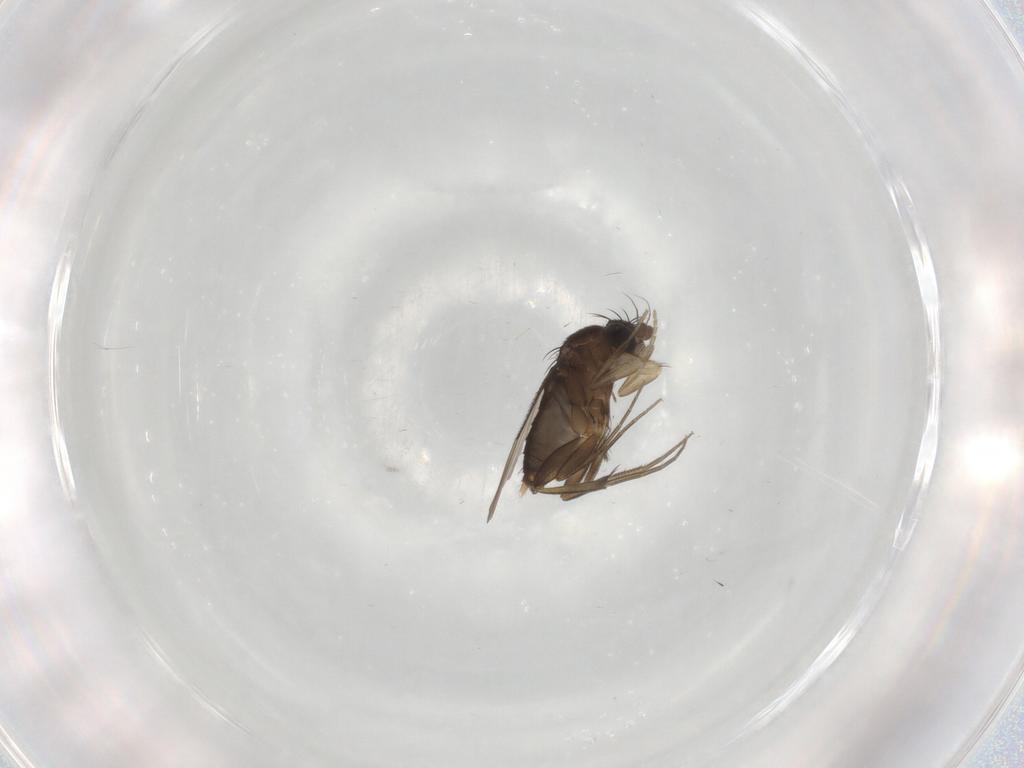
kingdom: Animalia
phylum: Arthropoda
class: Insecta
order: Diptera
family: Phoridae
